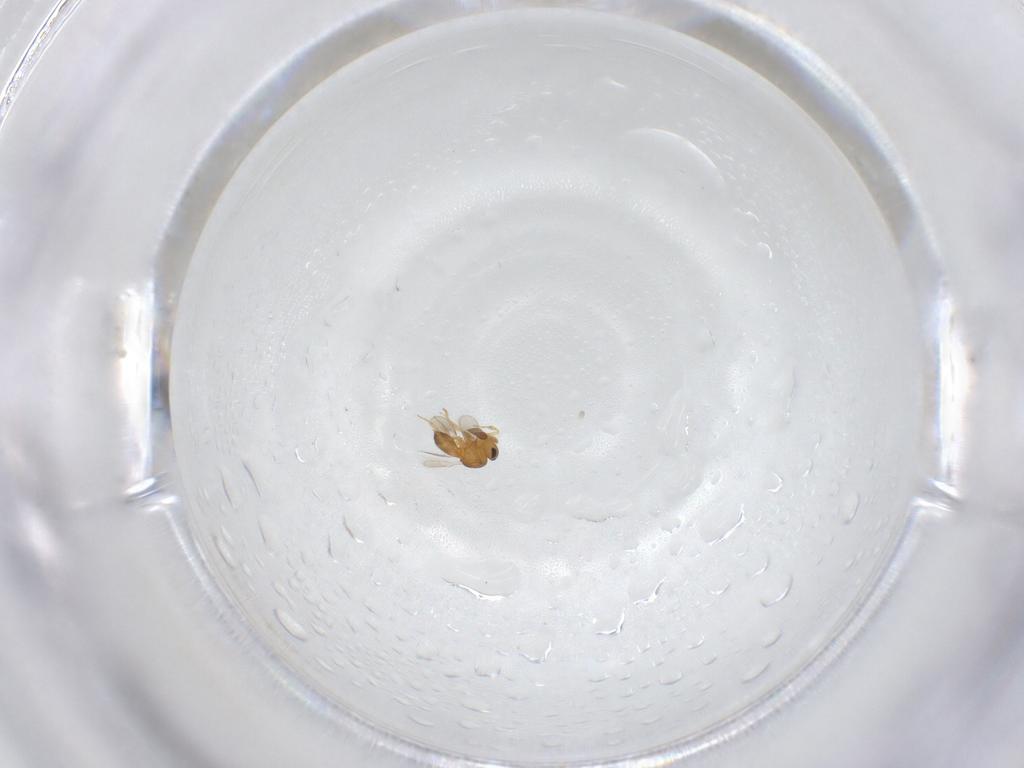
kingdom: Animalia
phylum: Arthropoda
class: Insecta
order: Hymenoptera
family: Scelionidae
